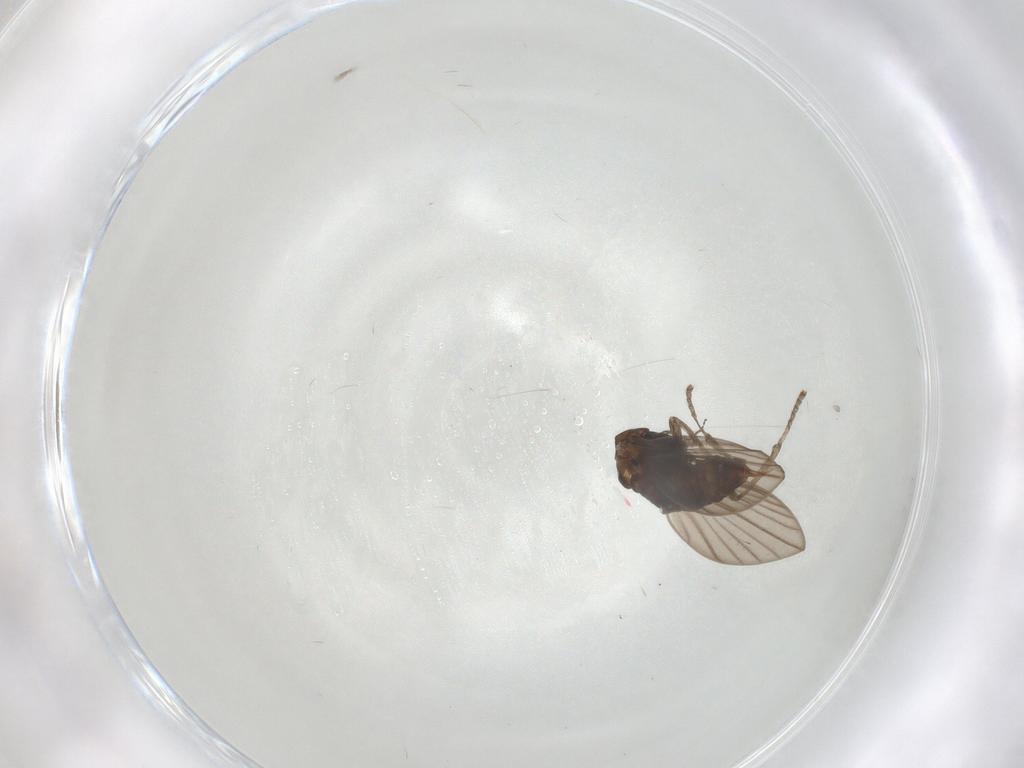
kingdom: Animalia
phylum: Arthropoda
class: Insecta
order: Diptera
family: Psychodidae
